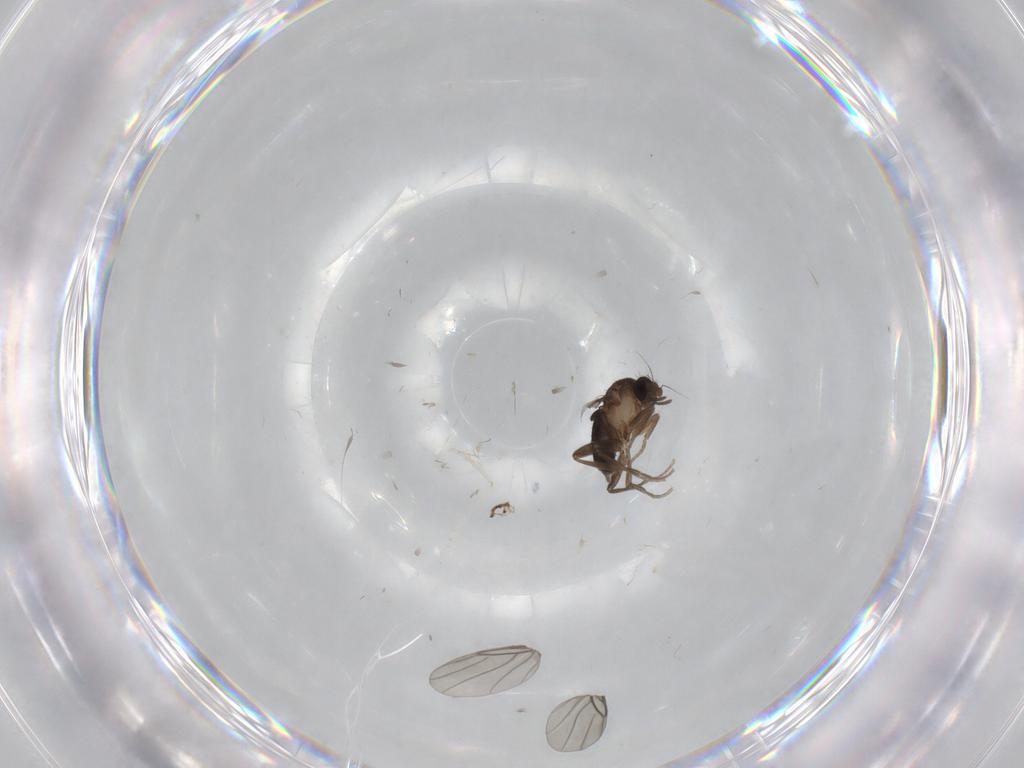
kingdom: Animalia
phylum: Arthropoda
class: Insecta
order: Diptera
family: Phoridae
